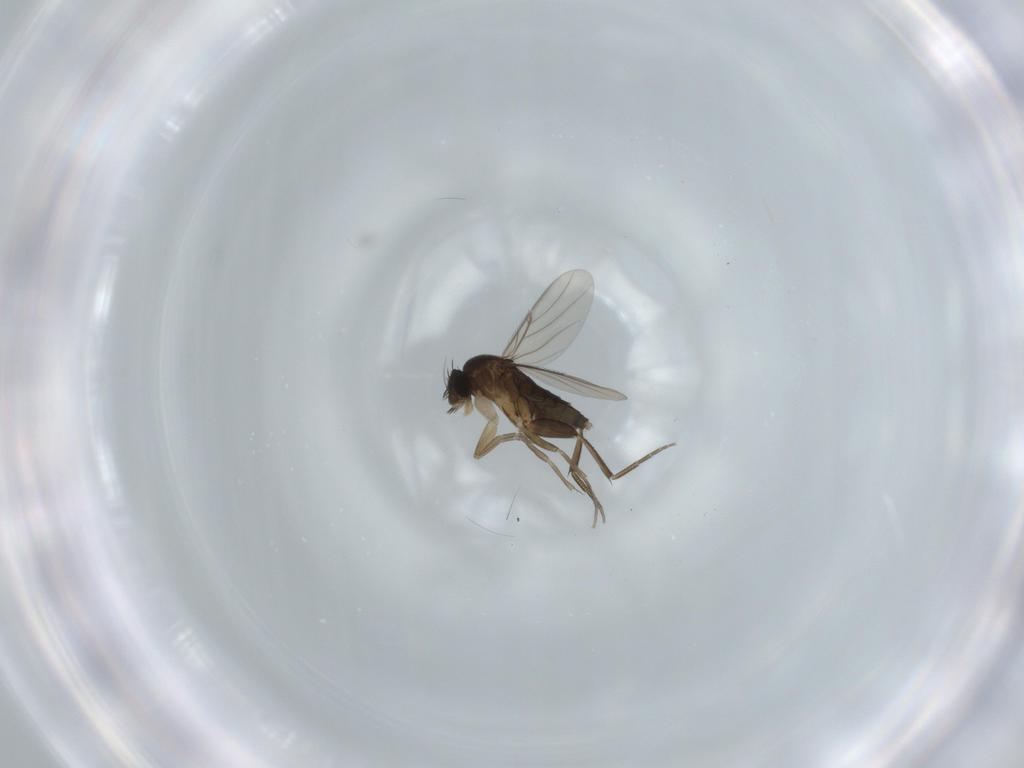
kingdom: Animalia
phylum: Arthropoda
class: Insecta
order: Diptera
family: Phoridae
